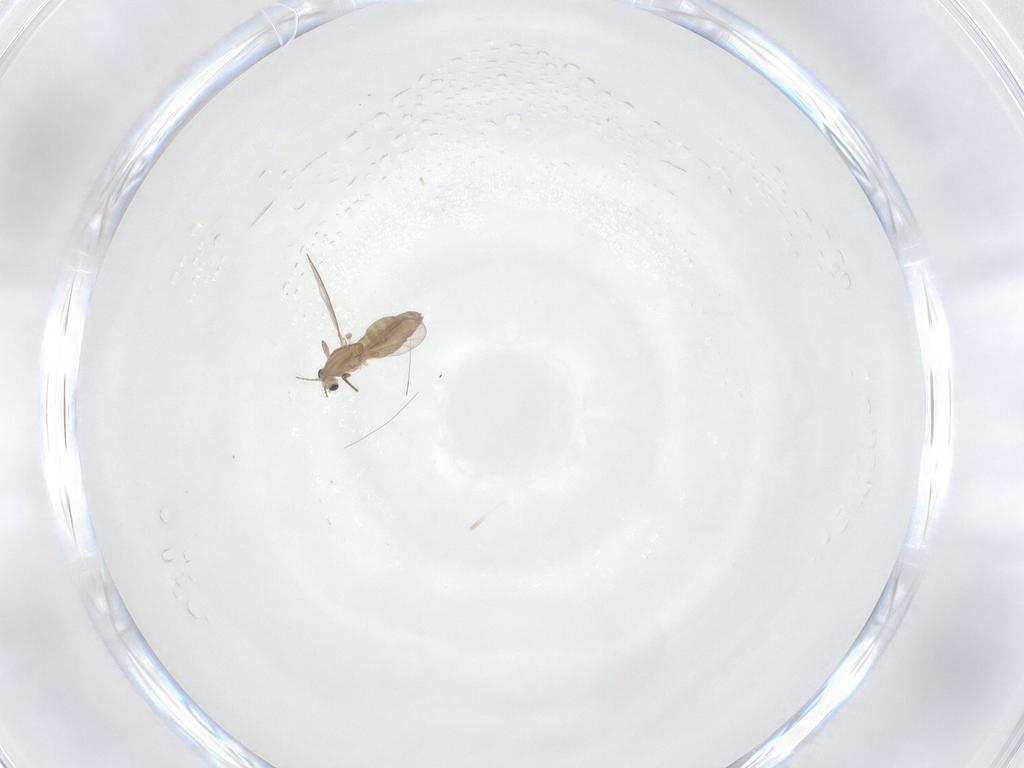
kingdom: Animalia
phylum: Arthropoda
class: Insecta
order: Diptera
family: Chironomidae
